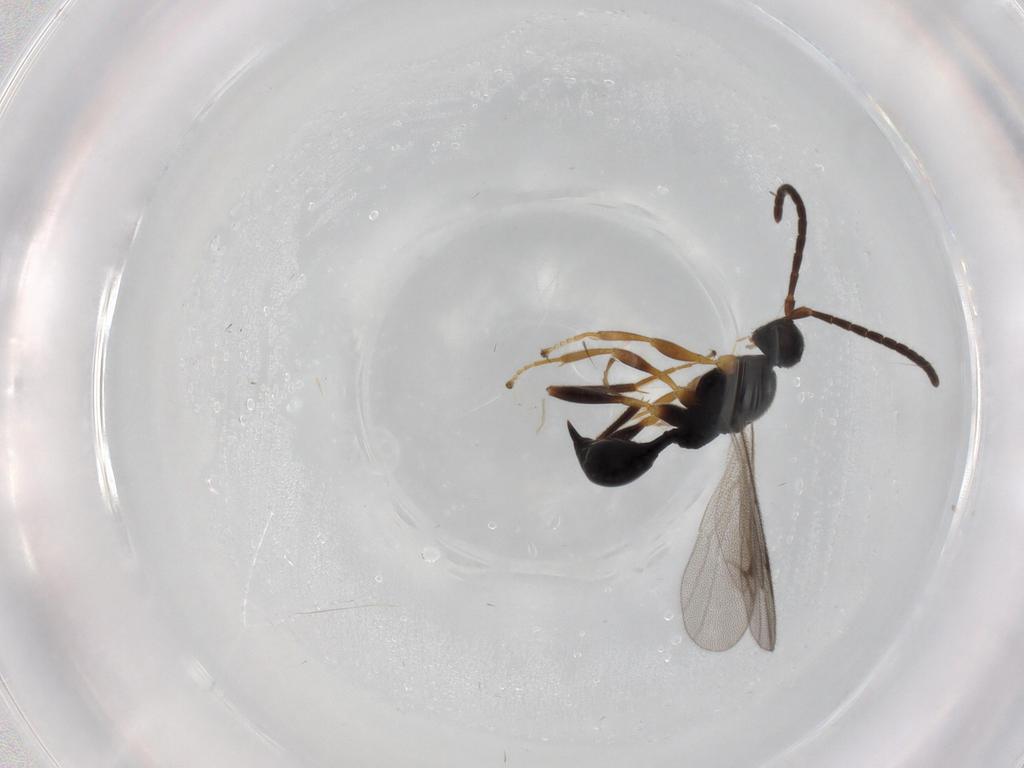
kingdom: Animalia
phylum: Arthropoda
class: Insecta
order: Hymenoptera
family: Proctotrupidae
